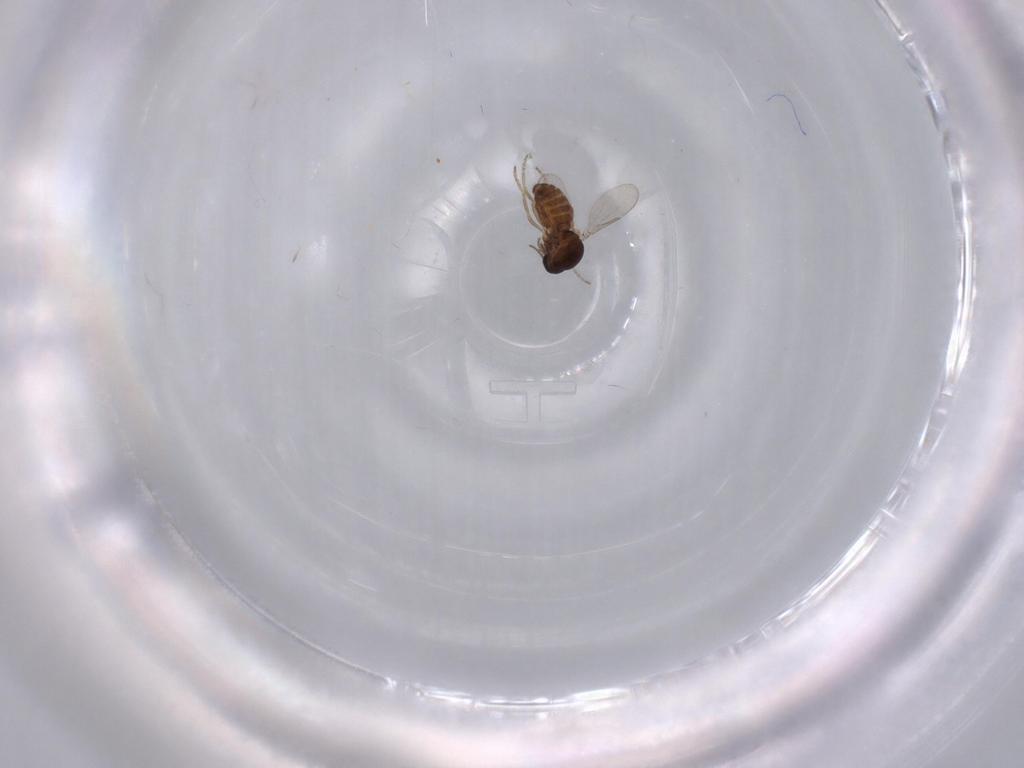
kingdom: Animalia
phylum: Arthropoda
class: Insecta
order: Diptera
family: Ceratopogonidae
